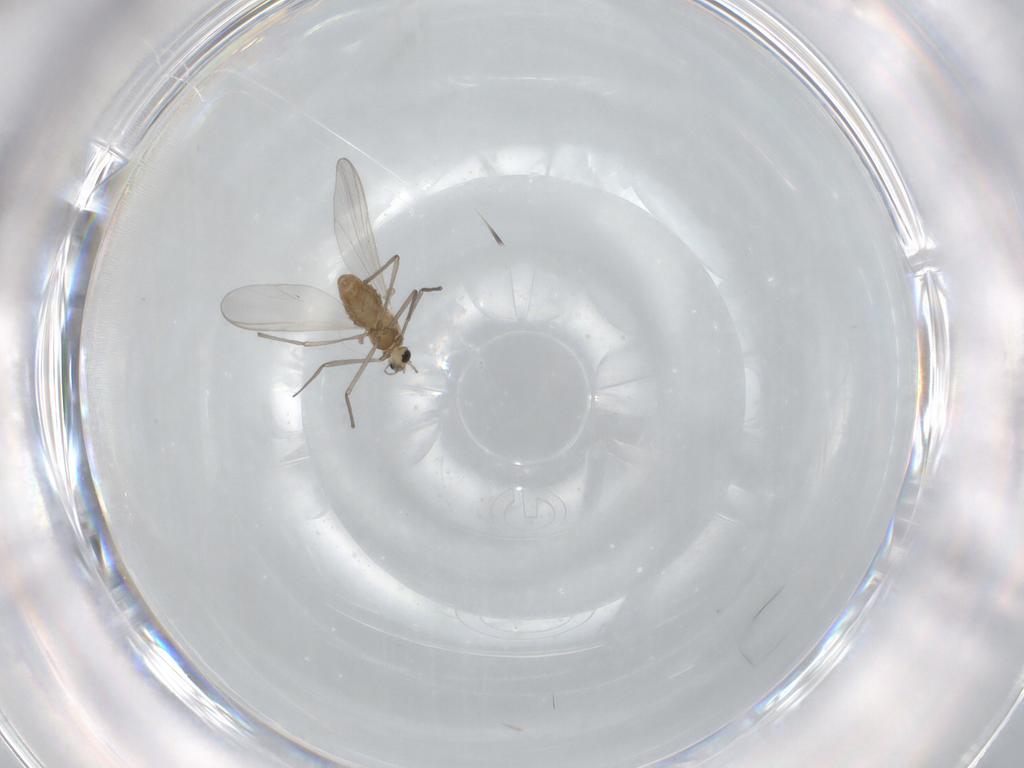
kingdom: Animalia
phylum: Arthropoda
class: Insecta
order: Diptera
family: Chironomidae
